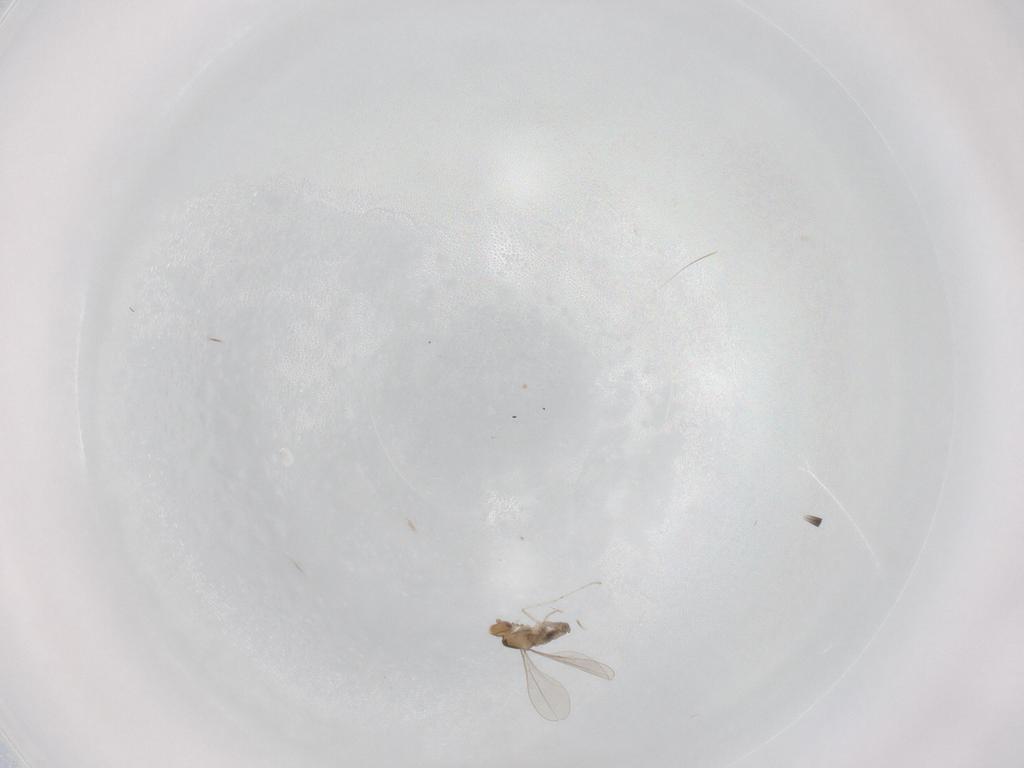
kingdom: Animalia
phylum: Arthropoda
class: Insecta
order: Diptera
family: Cecidomyiidae
